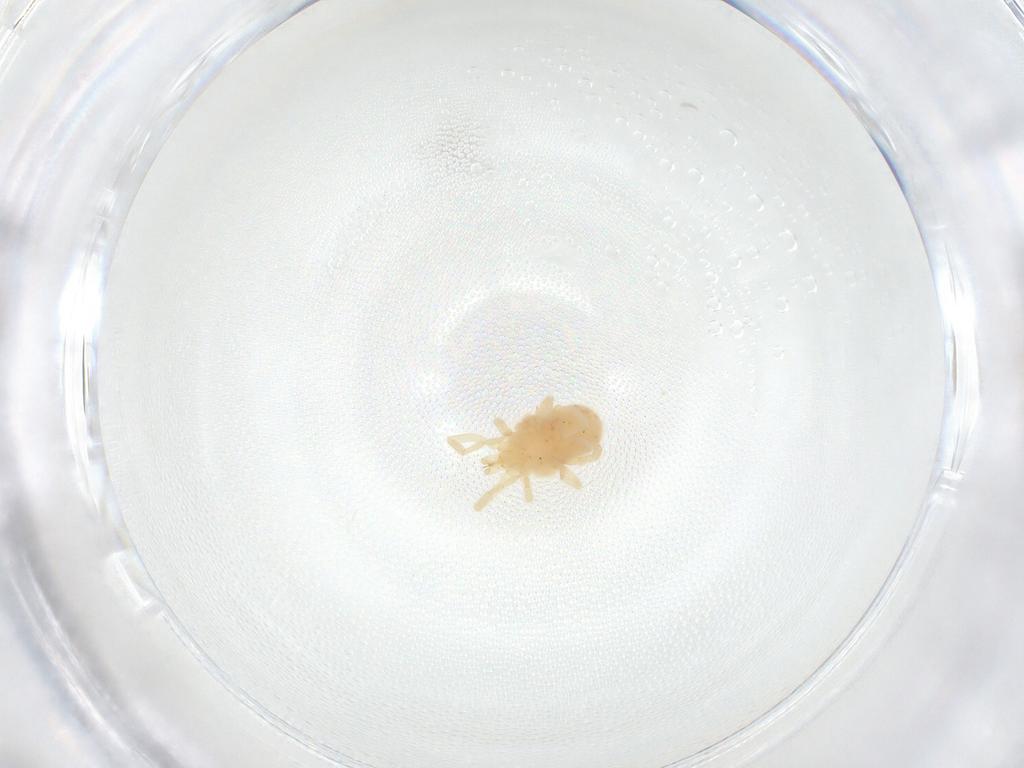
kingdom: Animalia
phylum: Arthropoda
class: Arachnida
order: Trombidiformes
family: Erythraeidae
